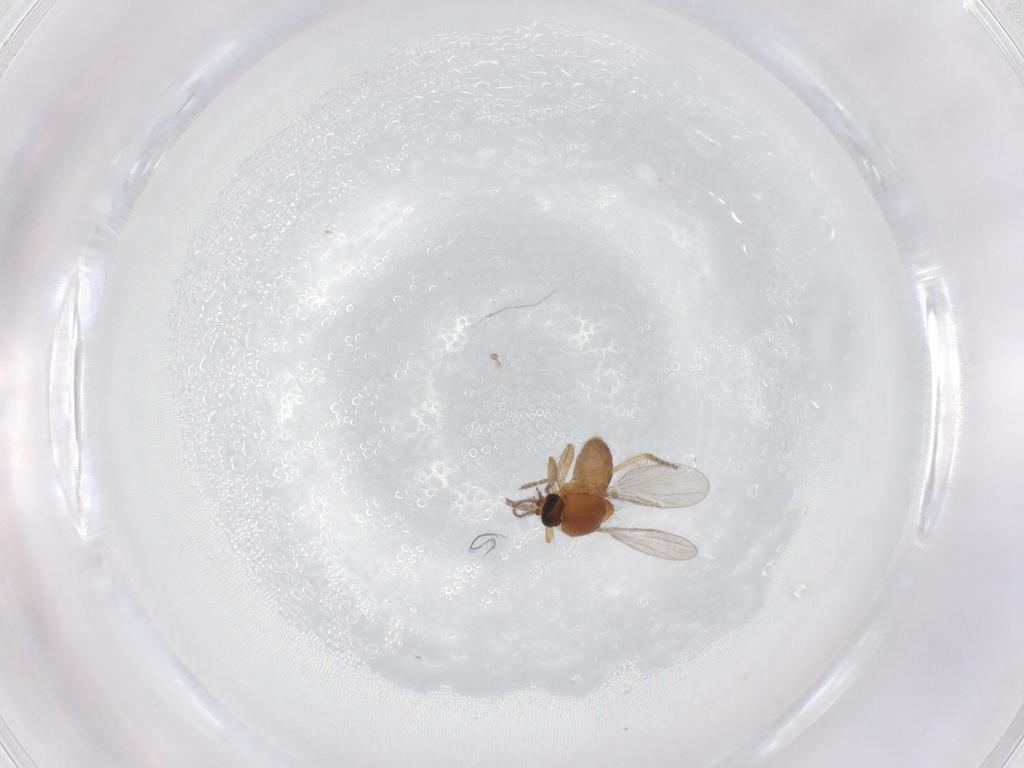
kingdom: Animalia
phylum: Arthropoda
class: Insecta
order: Diptera
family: Ceratopogonidae
